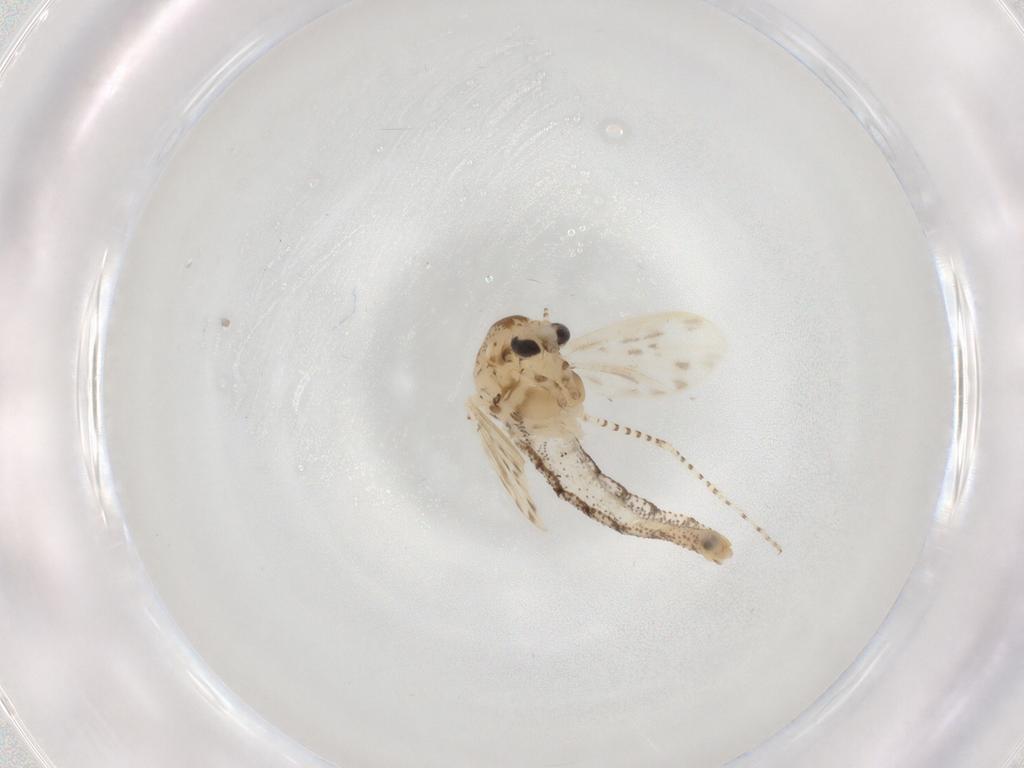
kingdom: Animalia
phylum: Arthropoda
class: Insecta
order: Diptera
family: Chaoboridae
